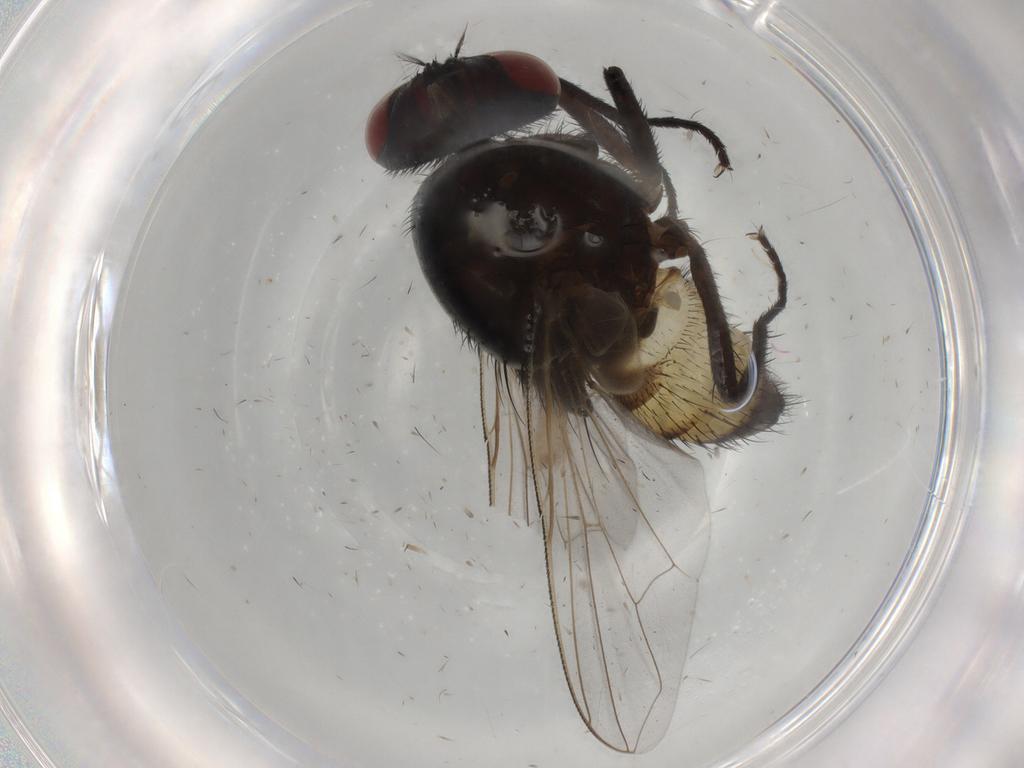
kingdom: Animalia
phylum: Arthropoda
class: Insecta
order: Diptera
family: Muscidae
